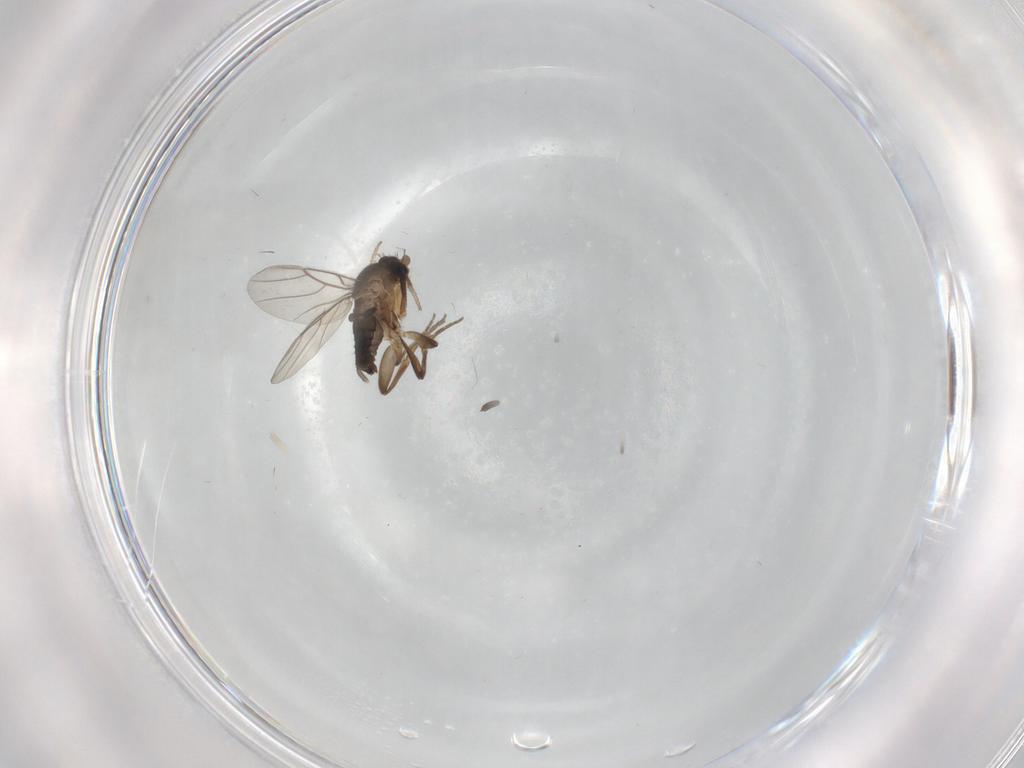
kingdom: Animalia
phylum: Arthropoda
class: Insecta
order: Diptera
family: Phoridae
